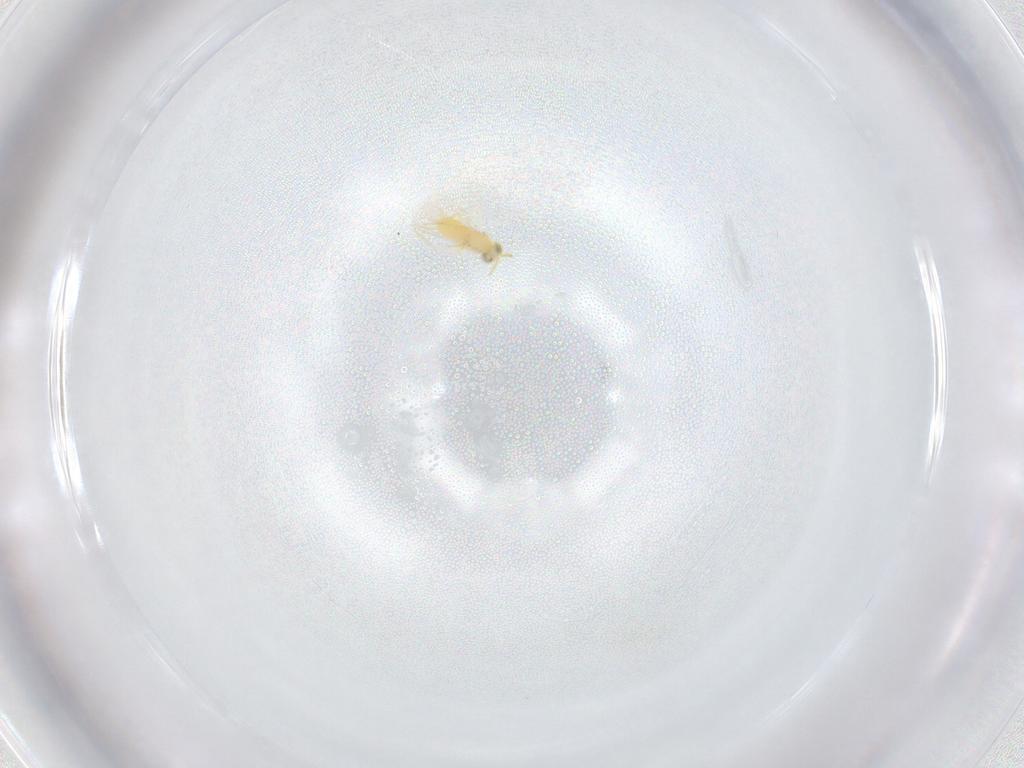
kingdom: Animalia
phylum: Arthropoda
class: Insecta
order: Hymenoptera
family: Aphelinidae
